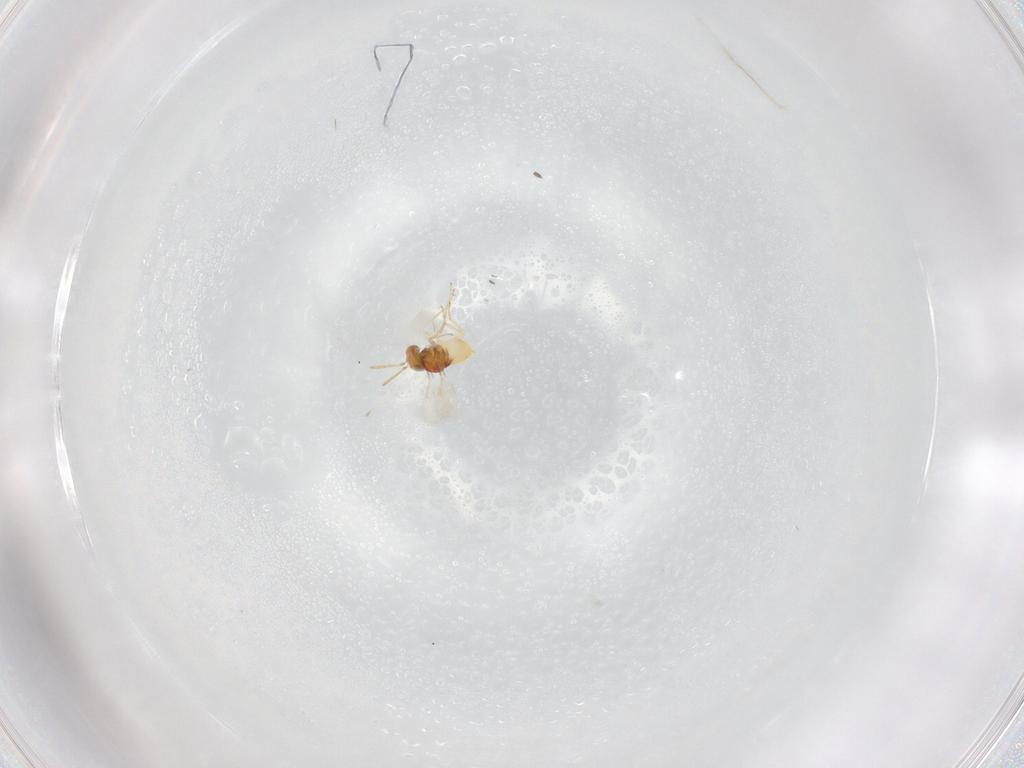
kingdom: Animalia
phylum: Arthropoda
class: Insecta
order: Hymenoptera
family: Aphelinidae
